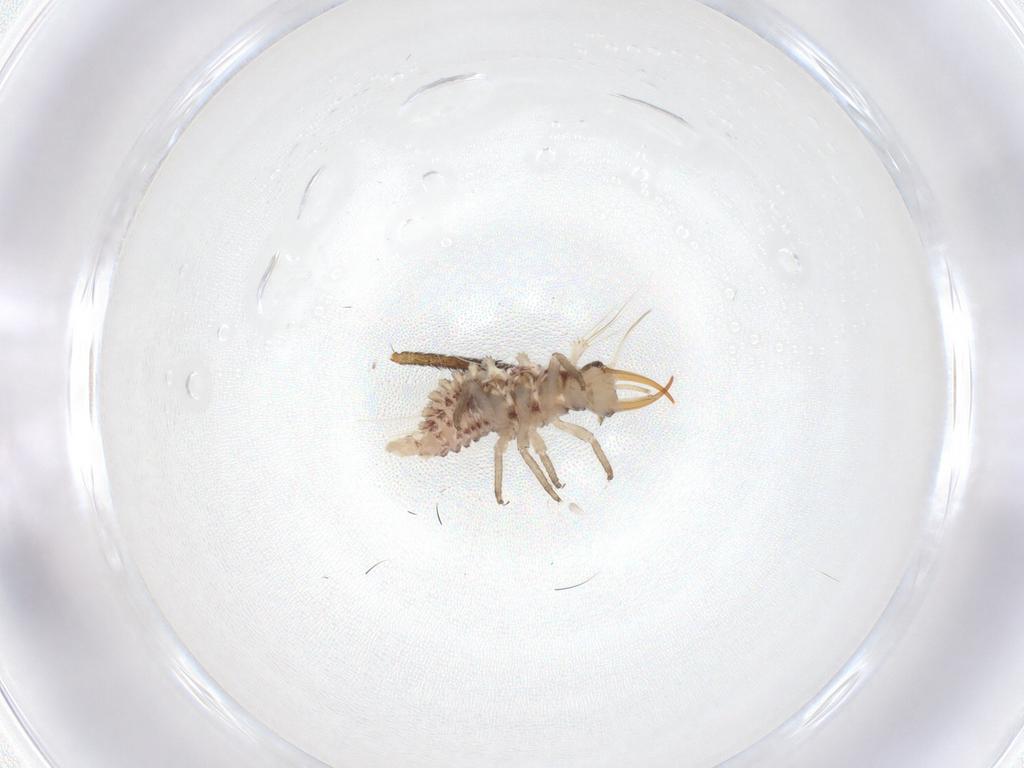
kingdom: Animalia
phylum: Arthropoda
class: Insecta
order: Neuroptera
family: Chrysopidae
